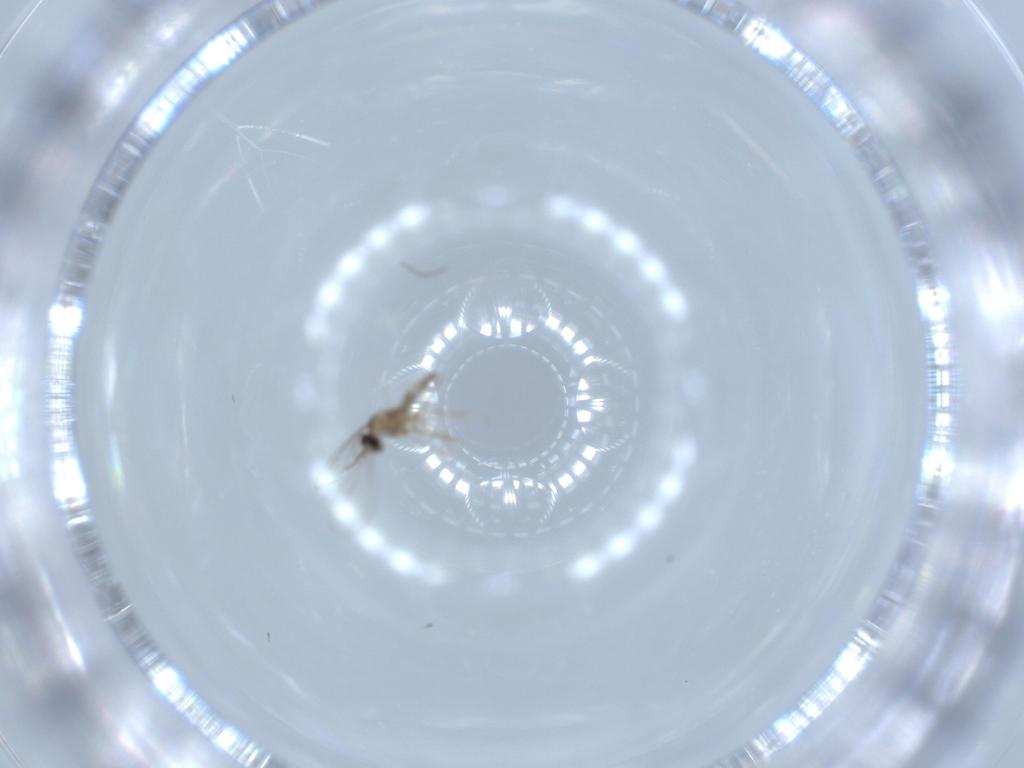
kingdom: Animalia
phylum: Arthropoda
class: Insecta
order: Diptera
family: Cecidomyiidae
